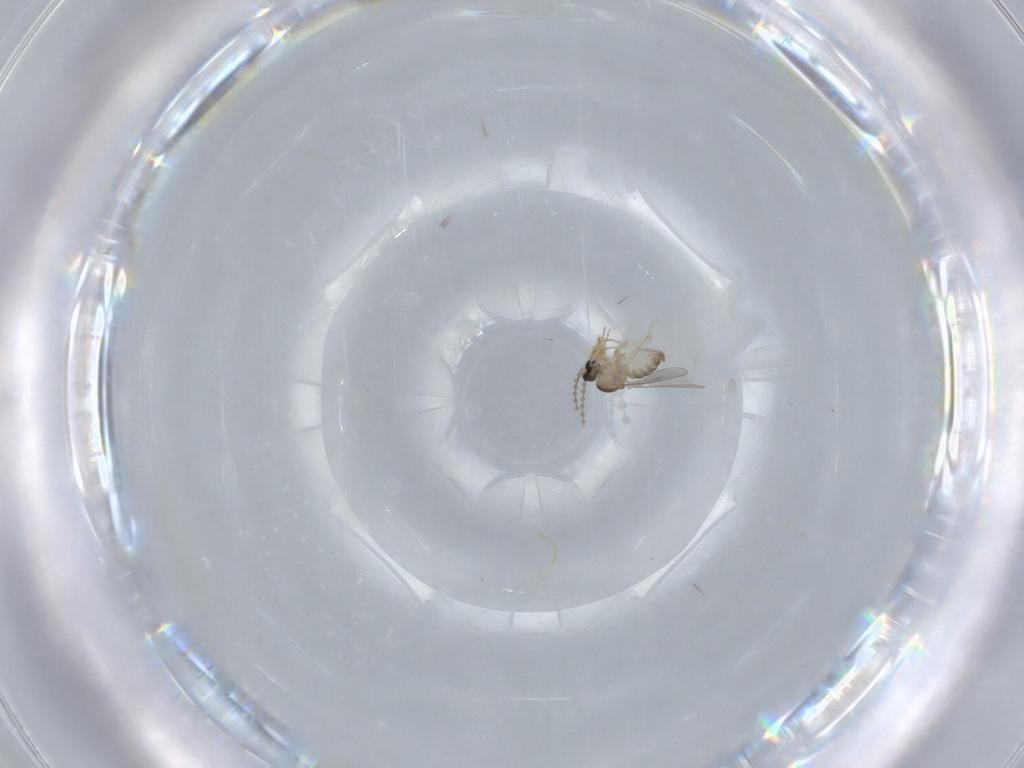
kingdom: Animalia
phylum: Arthropoda
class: Insecta
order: Diptera
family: Cecidomyiidae
